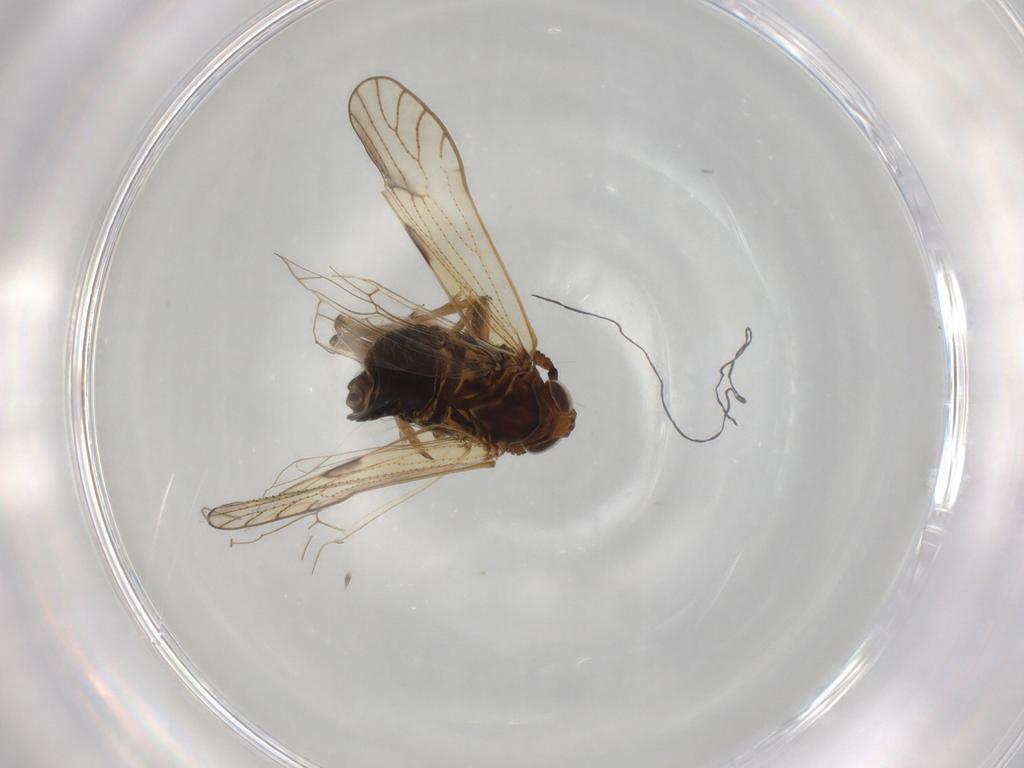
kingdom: Animalia
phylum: Arthropoda
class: Insecta
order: Hemiptera
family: Delphacidae
